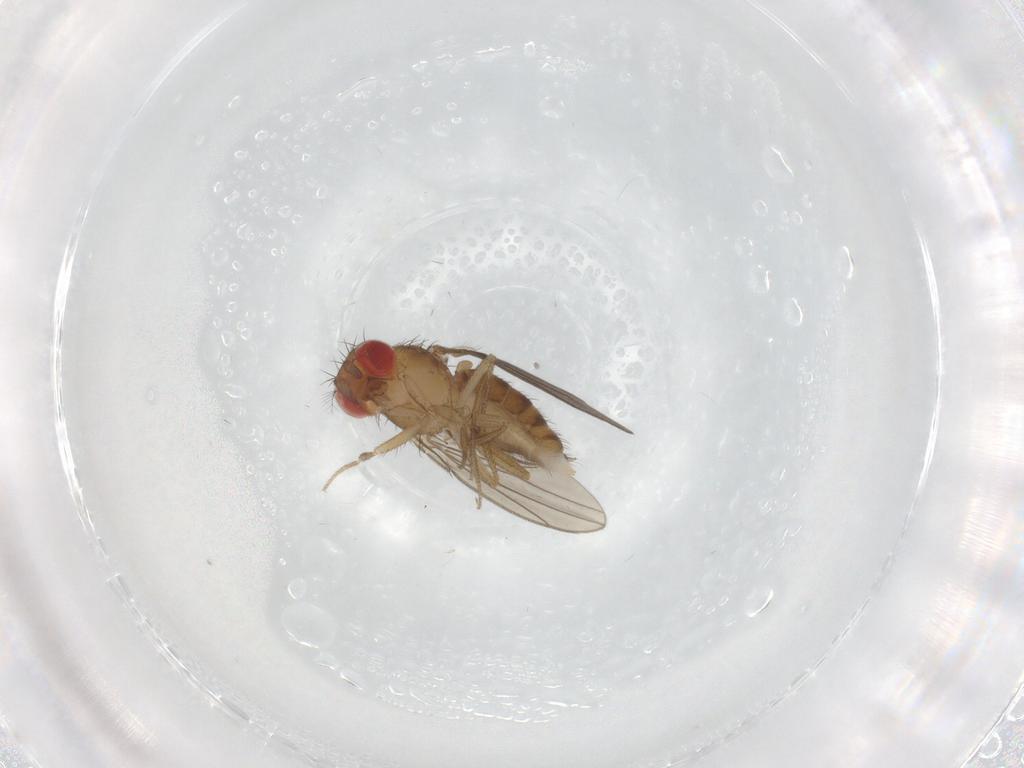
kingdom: Animalia
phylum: Arthropoda
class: Insecta
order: Diptera
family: Drosophilidae
